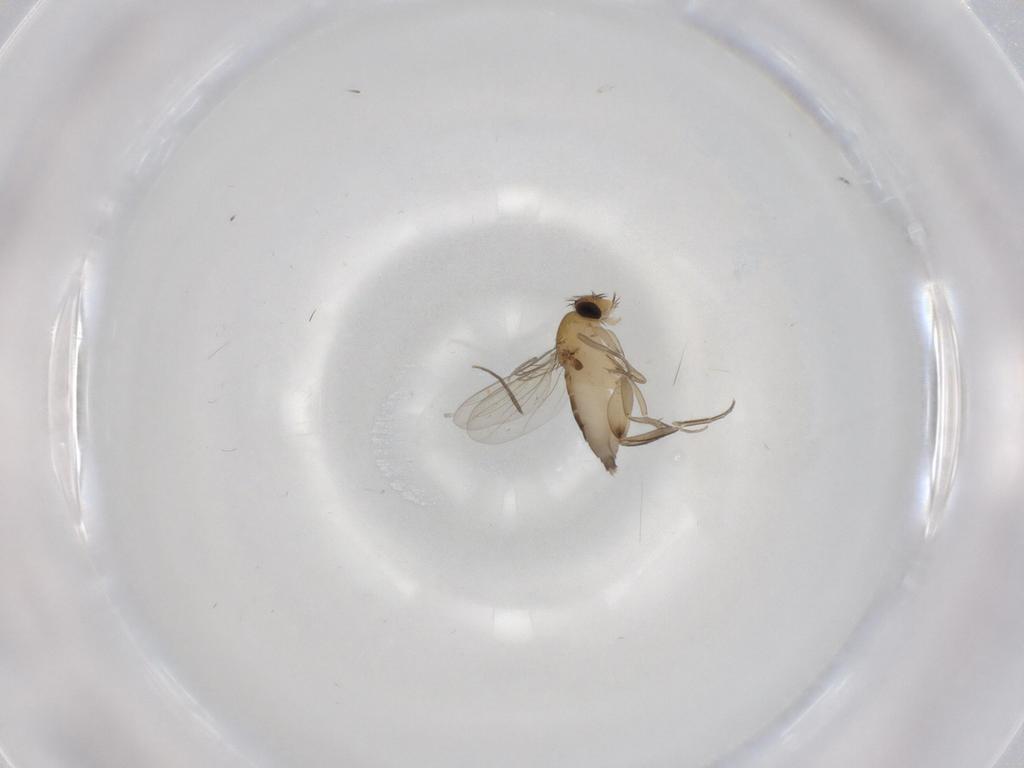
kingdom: Animalia
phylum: Arthropoda
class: Insecta
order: Diptera
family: Phoridae
